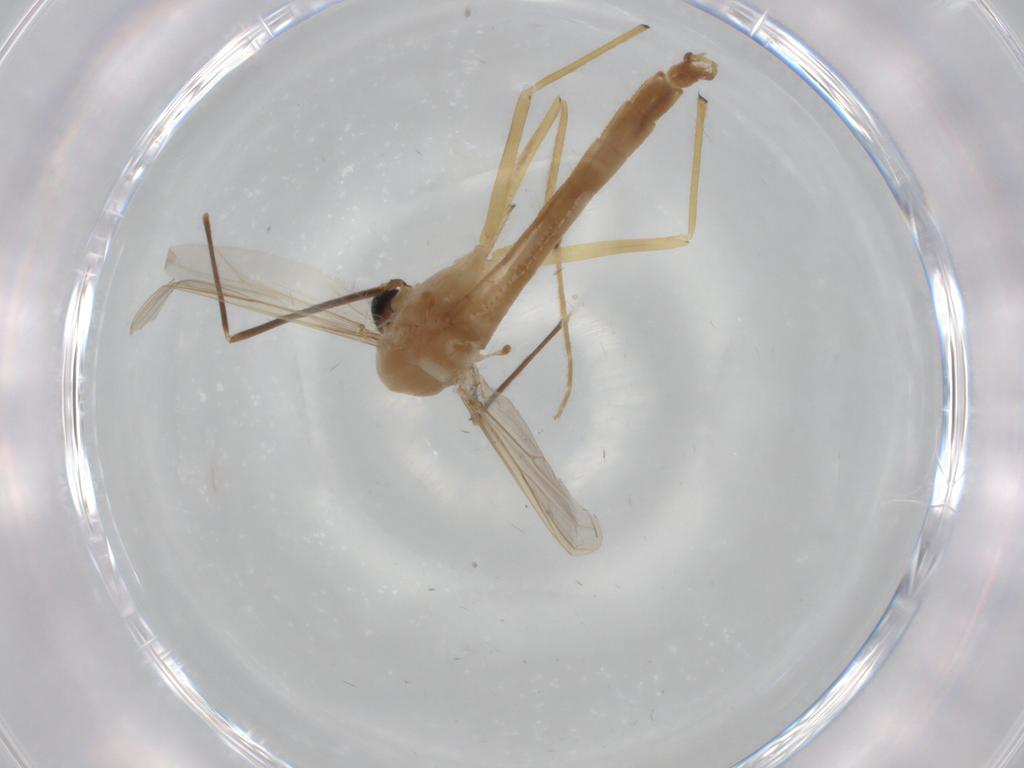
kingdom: Animalia
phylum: Arthropoda
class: Insecta
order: Diptera
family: Chironomidae
